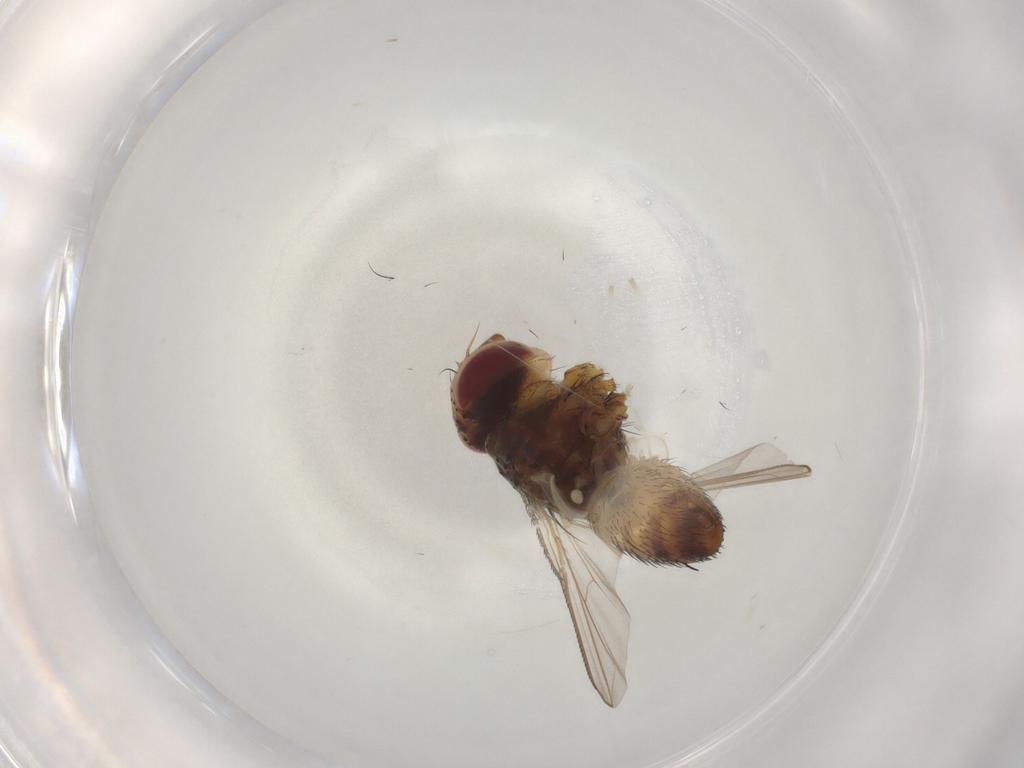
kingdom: Animalia
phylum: Arthropoda
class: Insecta
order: Diptera
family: Tachinidae
